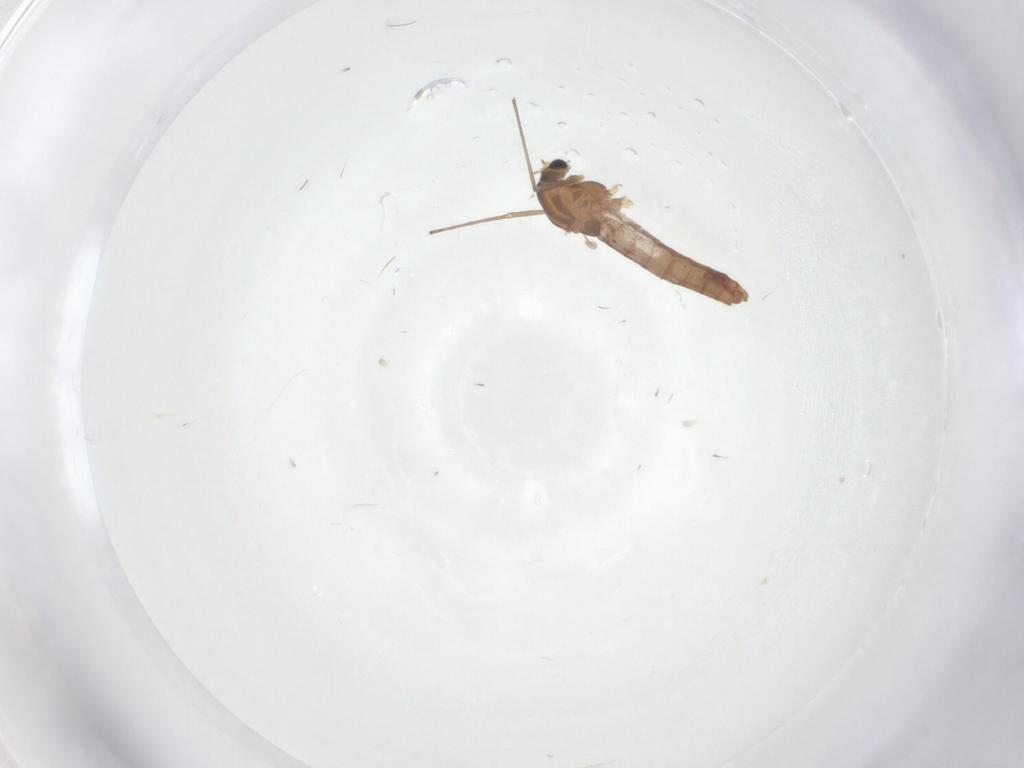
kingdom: Animalia
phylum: Arthropoda
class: Insecta
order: Diptera
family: Chironomidae
